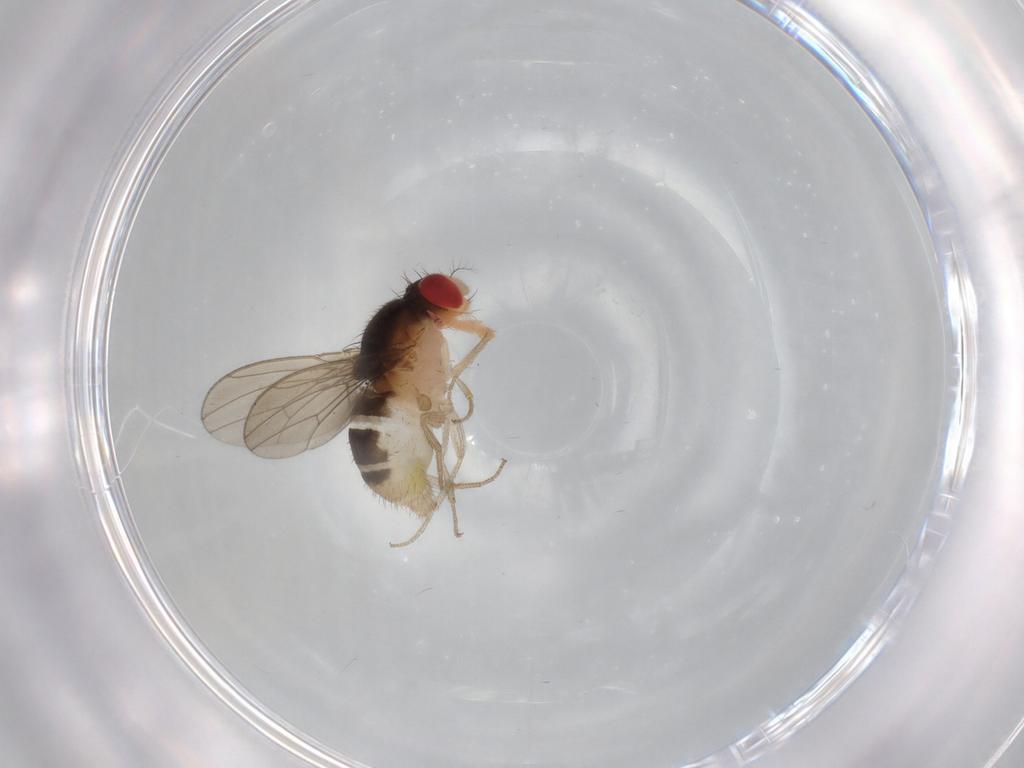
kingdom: Animalia
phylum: Arthropoda
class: Insecta
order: Diptera
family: Drosophilidae
